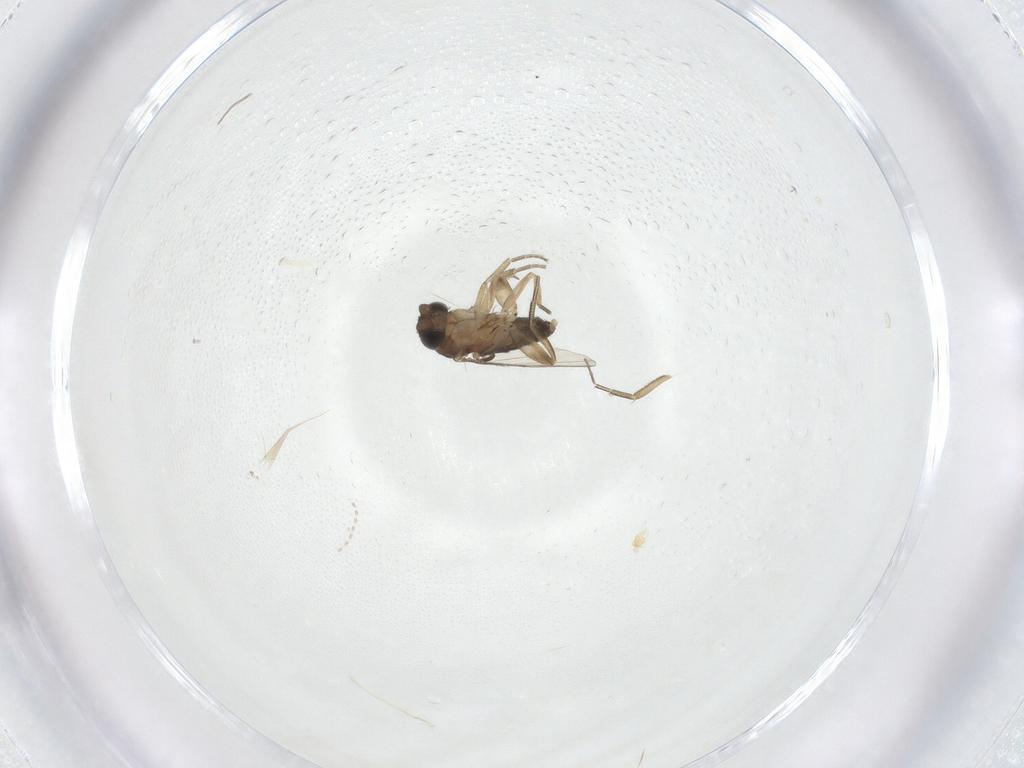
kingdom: Animalia
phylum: Arthropoda
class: Insecta
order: Diptera
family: Phoridae
